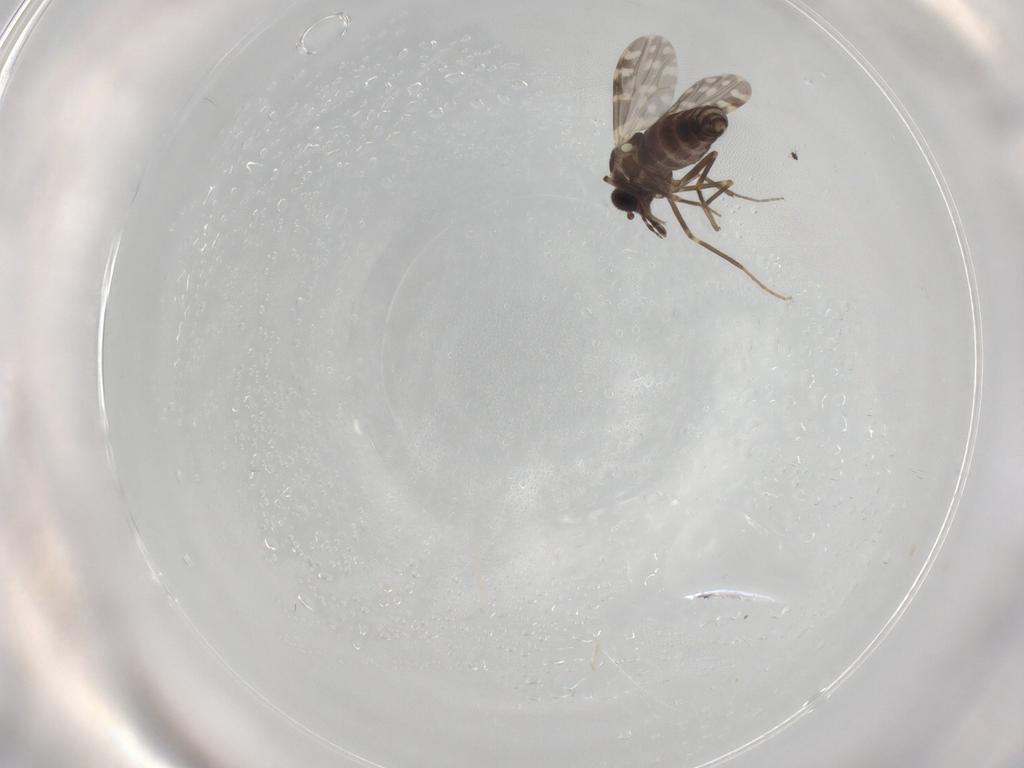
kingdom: Animalia
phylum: Arthropoda
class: Insecta
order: Diptera
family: Ceratopogonidae
